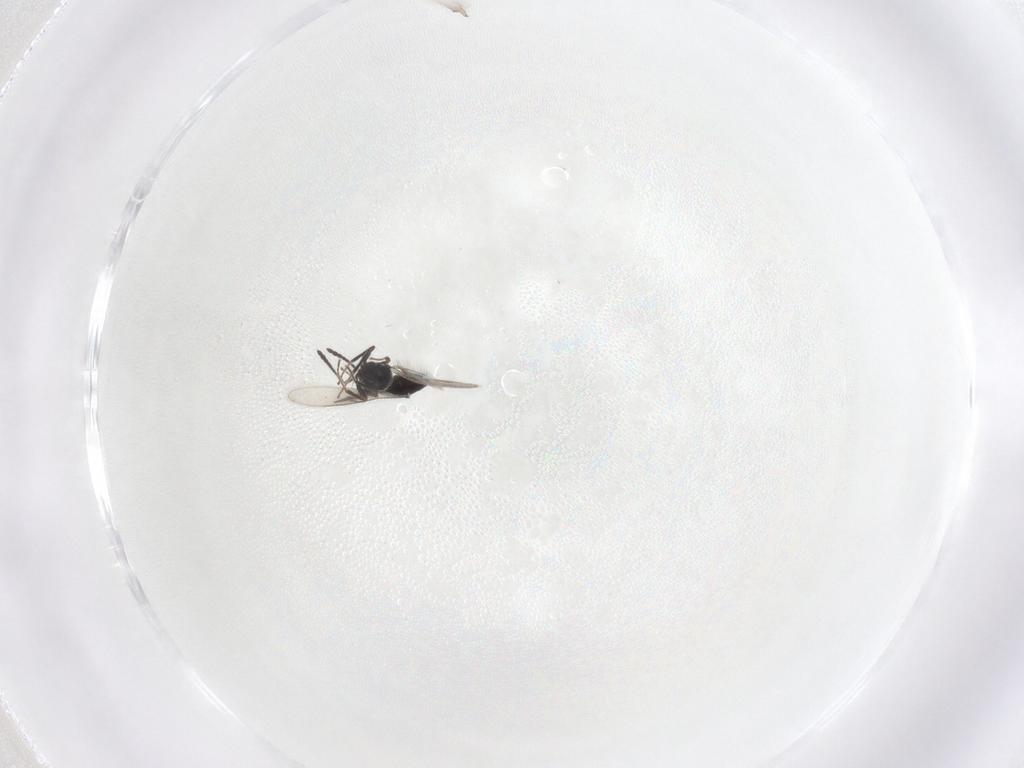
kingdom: Animalia
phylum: Arthropoda
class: Insecta
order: Hymenoptera
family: Scelionidae
